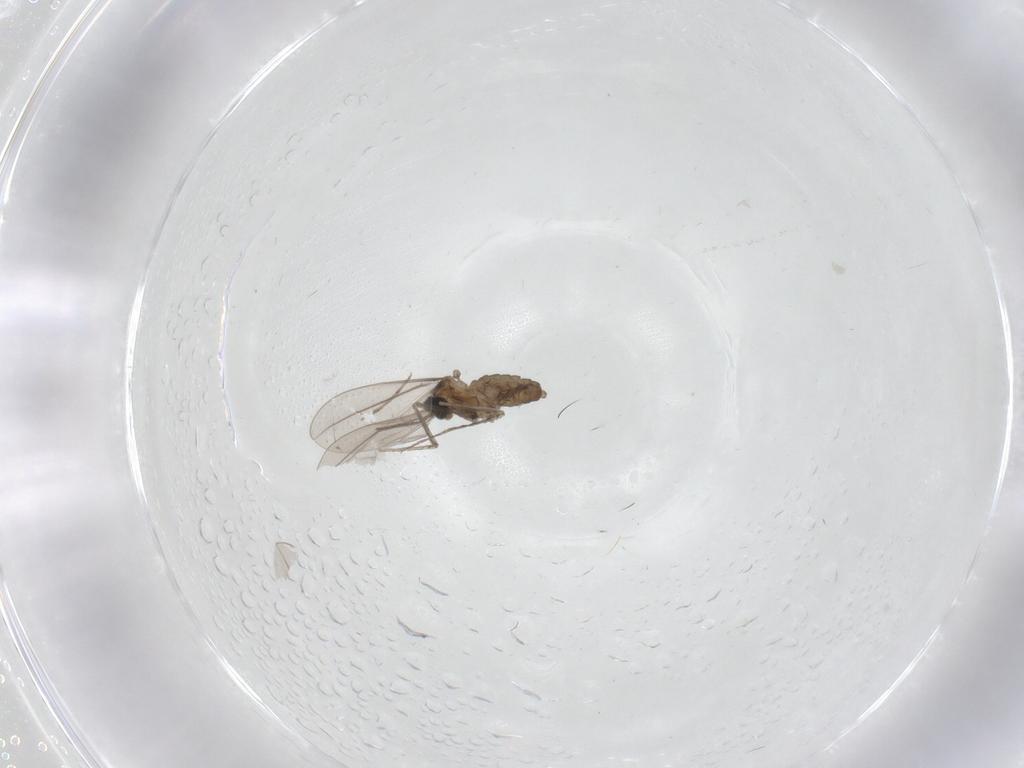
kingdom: Animalia
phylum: Arthropoda
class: Insecta
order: Diptera
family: Cecidomyiidae
